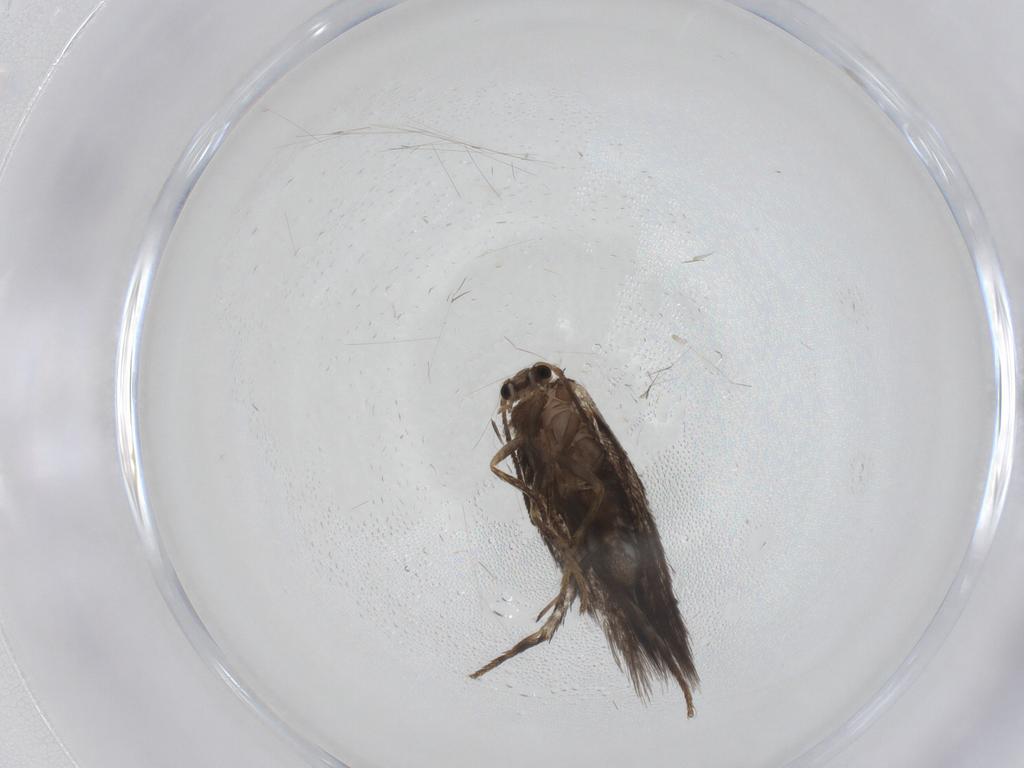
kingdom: Animalia
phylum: Arthropoda
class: Insecta
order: Lepidoptera
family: Nepticulidae
